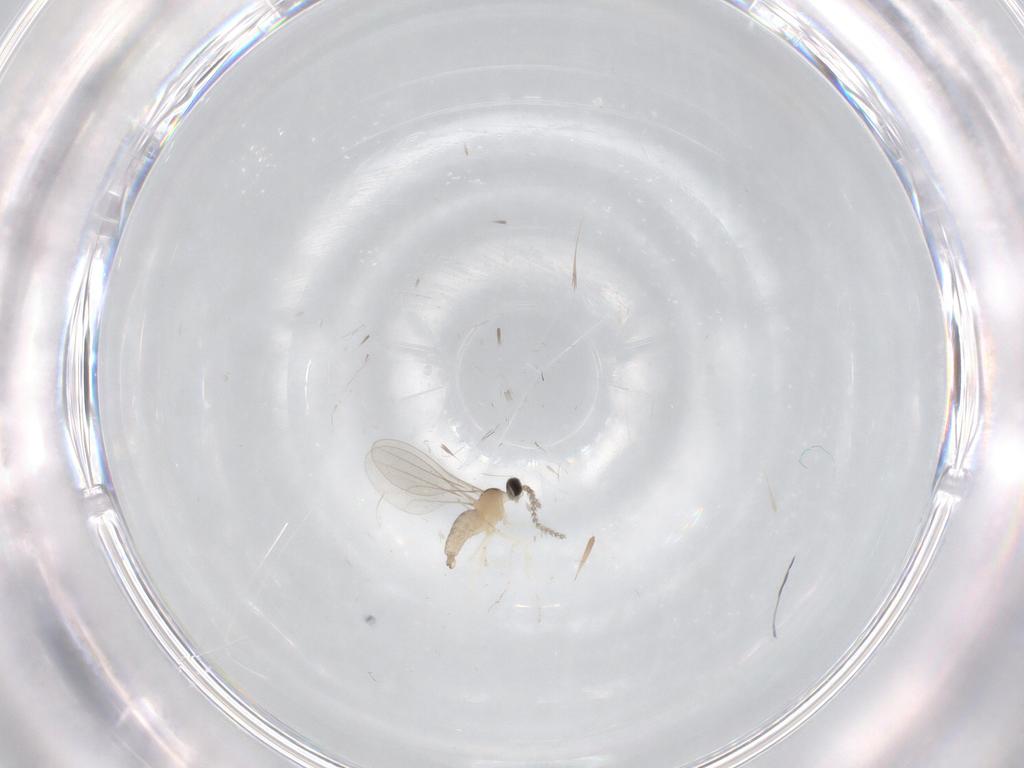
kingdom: Animalia
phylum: Arthropoda
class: Insecta
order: Diptera
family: Cecidomyiidae
